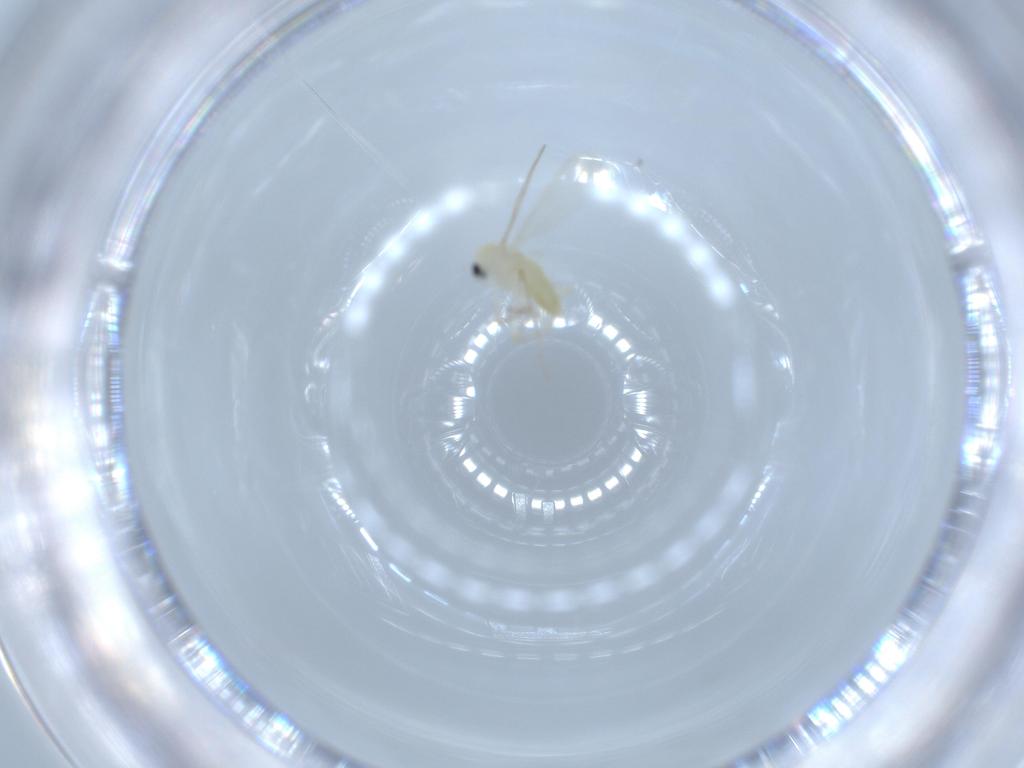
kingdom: Animalia
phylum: Arthropoda
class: Insecta
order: Diptera
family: Chironomidae
